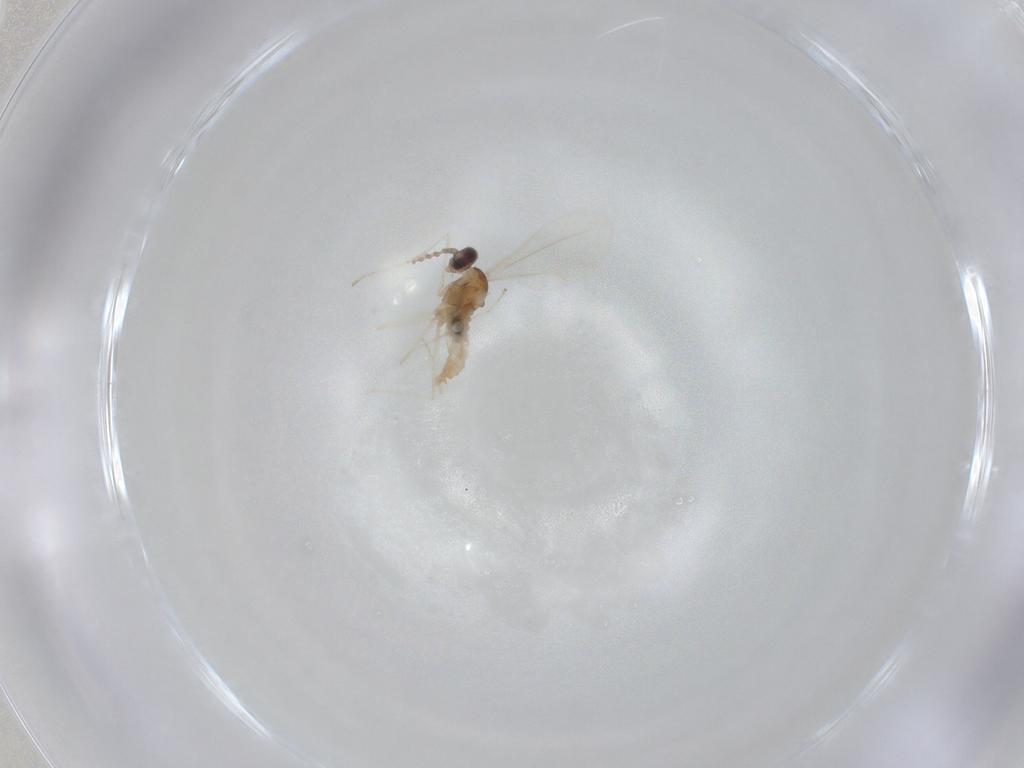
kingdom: Animalia
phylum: Arthropoda
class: Insecta
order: Diptera
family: Cecidomyiidae
